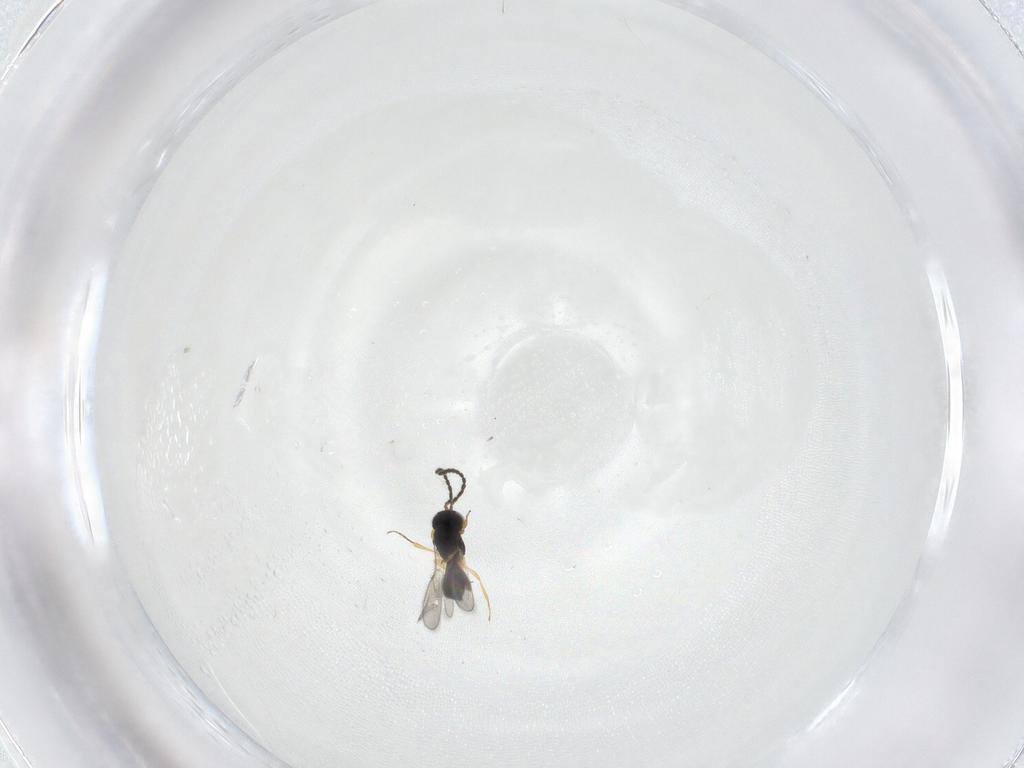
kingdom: Animalia
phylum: Arthropoda
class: Insecta
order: Hymenoptera
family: Scelionidae
